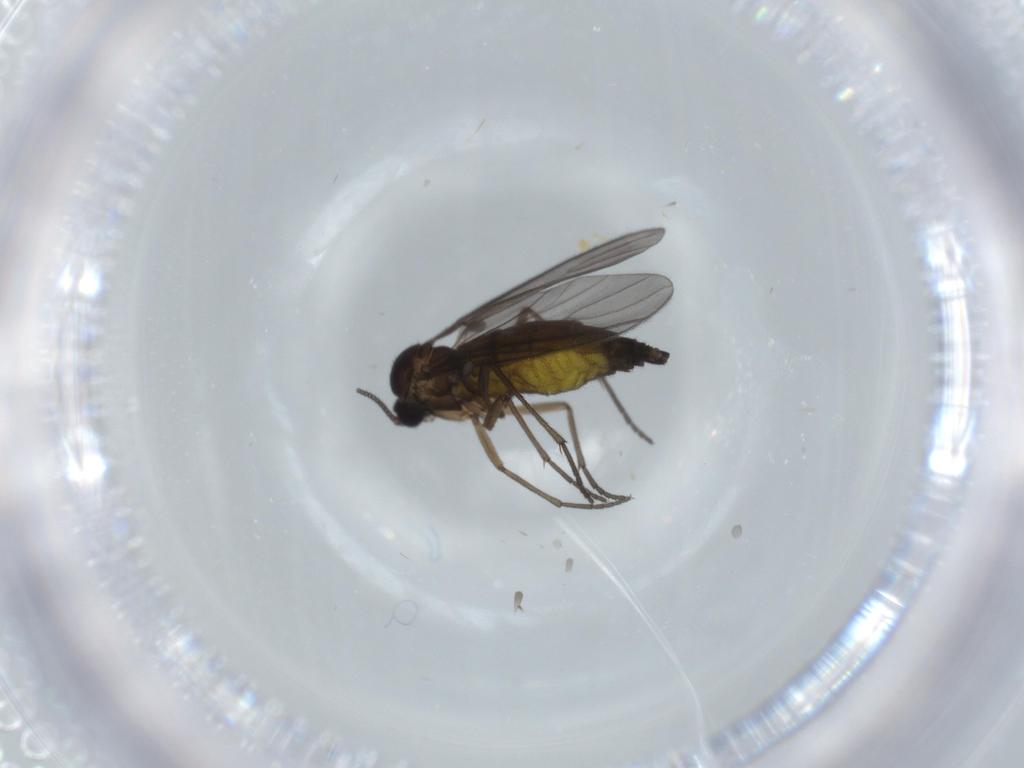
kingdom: Animalia
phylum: Arthropoda
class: Insecta
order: Diptera
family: Sciaridae
